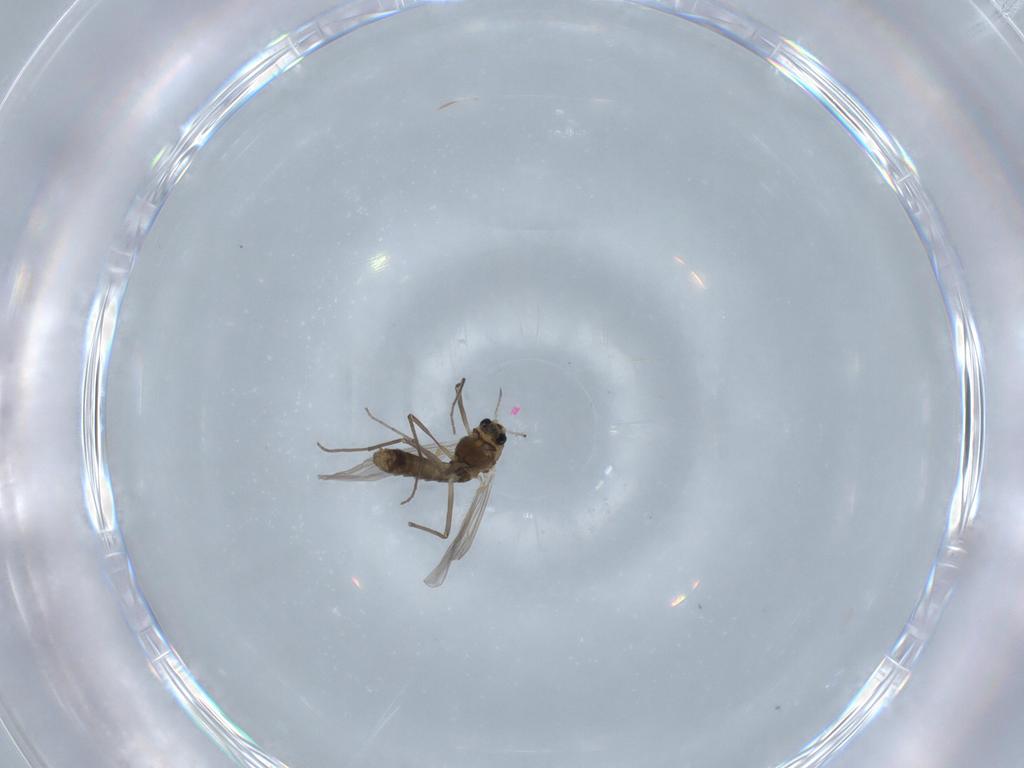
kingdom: Animalia
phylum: Arthropoda
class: Insecta
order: Diptera
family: Chironomidae
